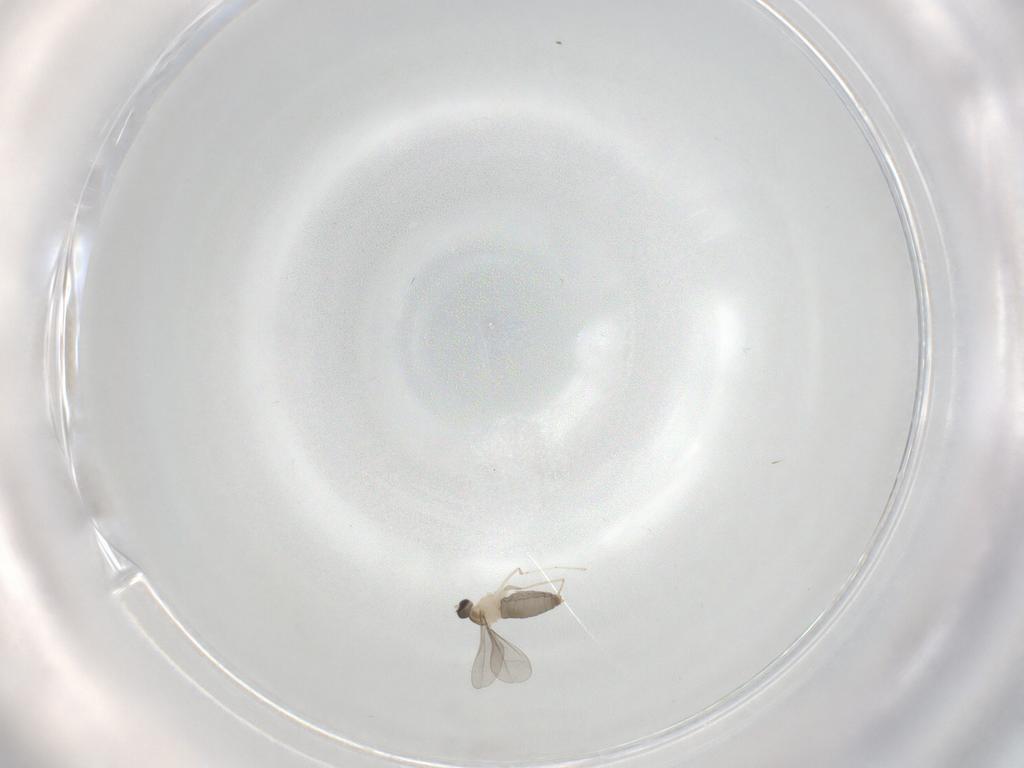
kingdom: Animalia
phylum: Arthropoda
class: Insecta
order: Diptera
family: Cecidomyiidae
